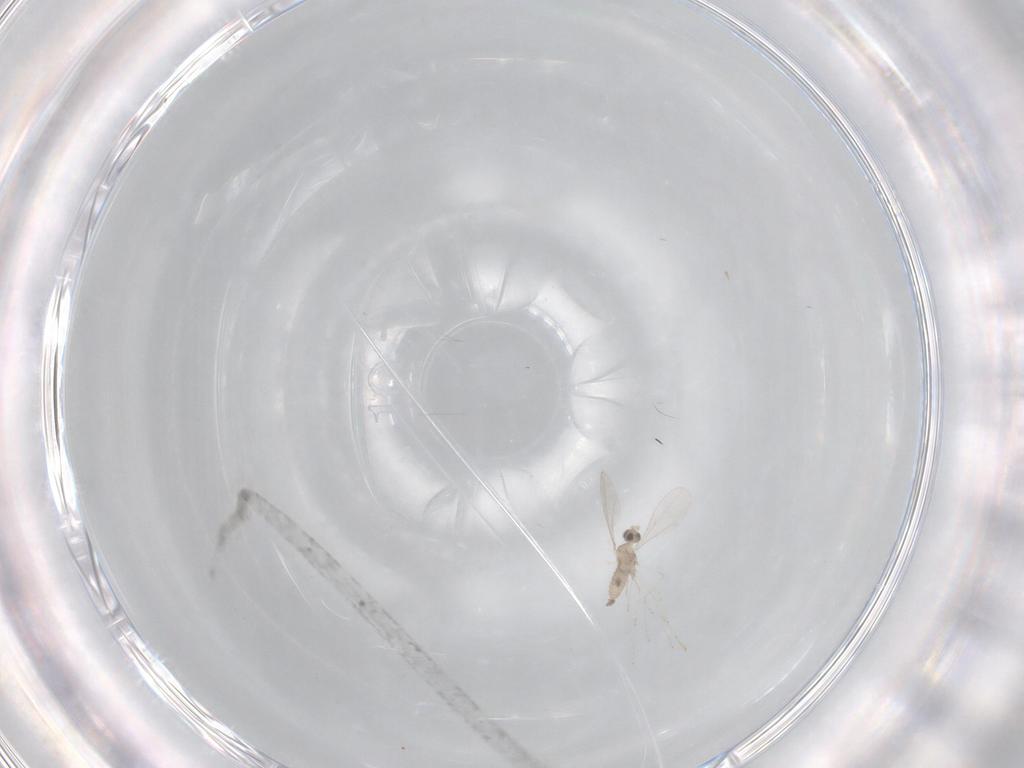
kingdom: Animalia
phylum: Arthropoda
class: Insecta
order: Diptera
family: Cecidomyiidae
